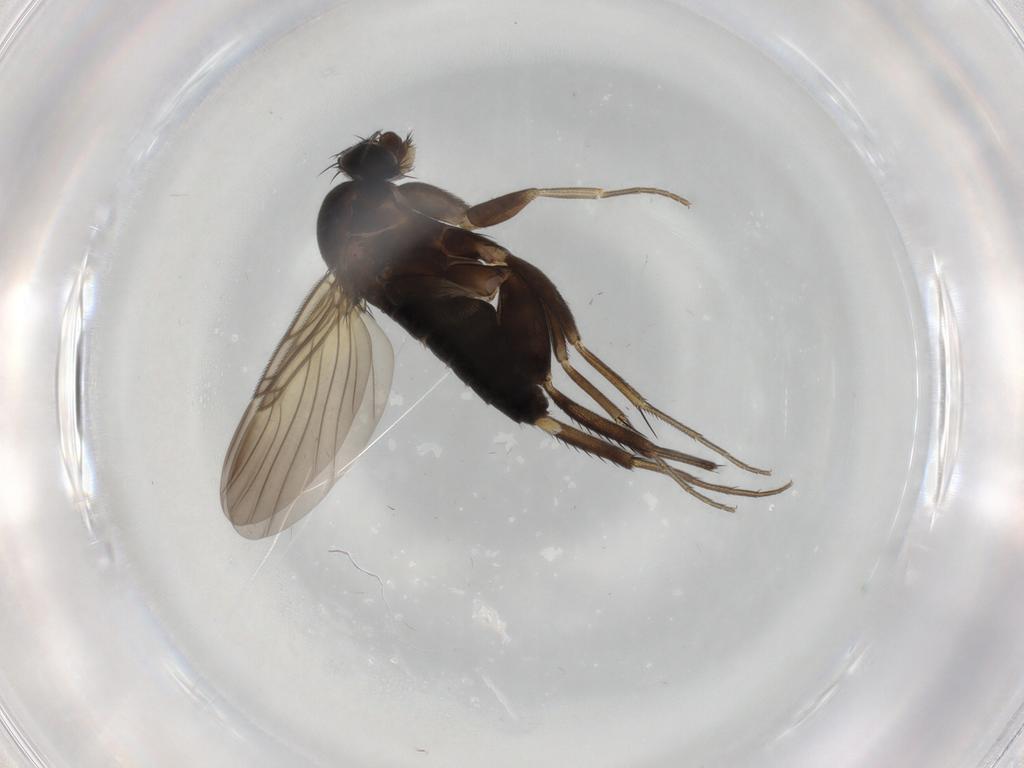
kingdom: Animalia
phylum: Arthropoda
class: Insecta
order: Diptera
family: Phoridae
